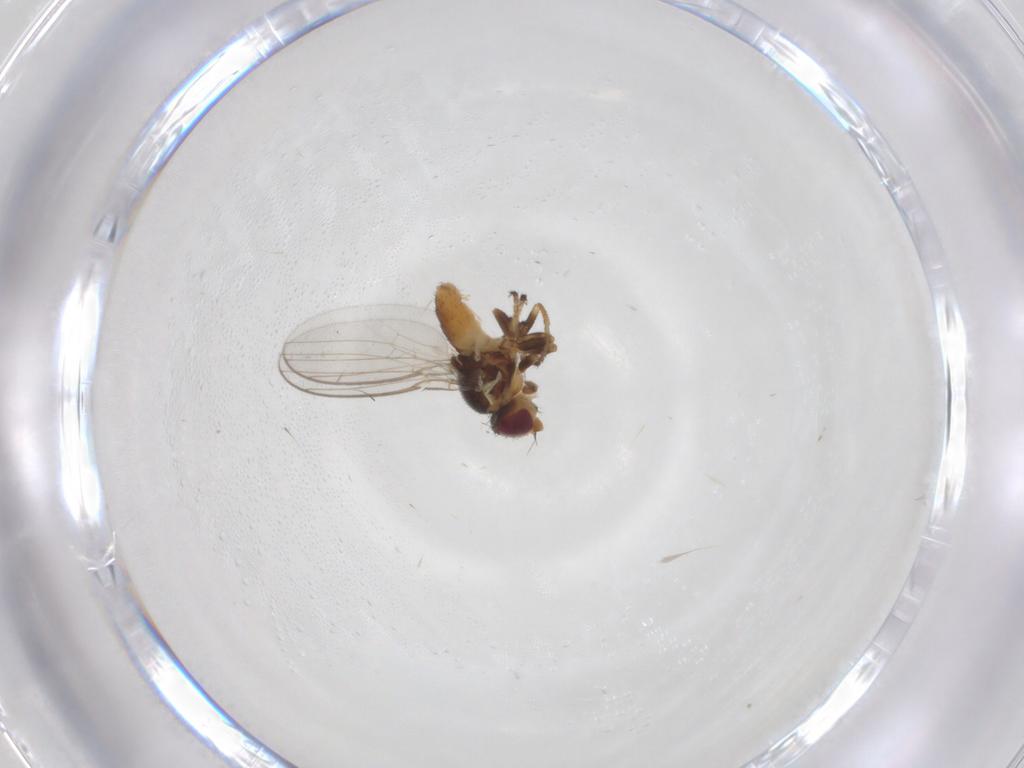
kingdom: Animalia
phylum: Arthropoda
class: Insecta
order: Diptera
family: Chloropidae
